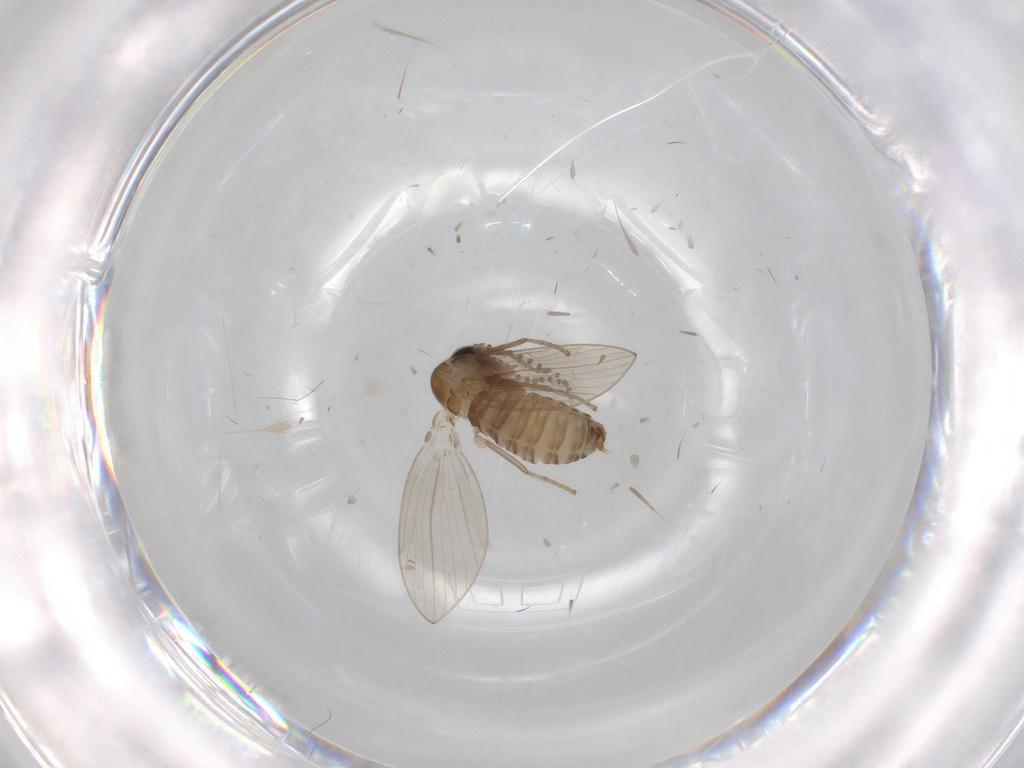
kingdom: Animalia
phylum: Arthropoda
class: Insecta
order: Diptera
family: Psychodidae
